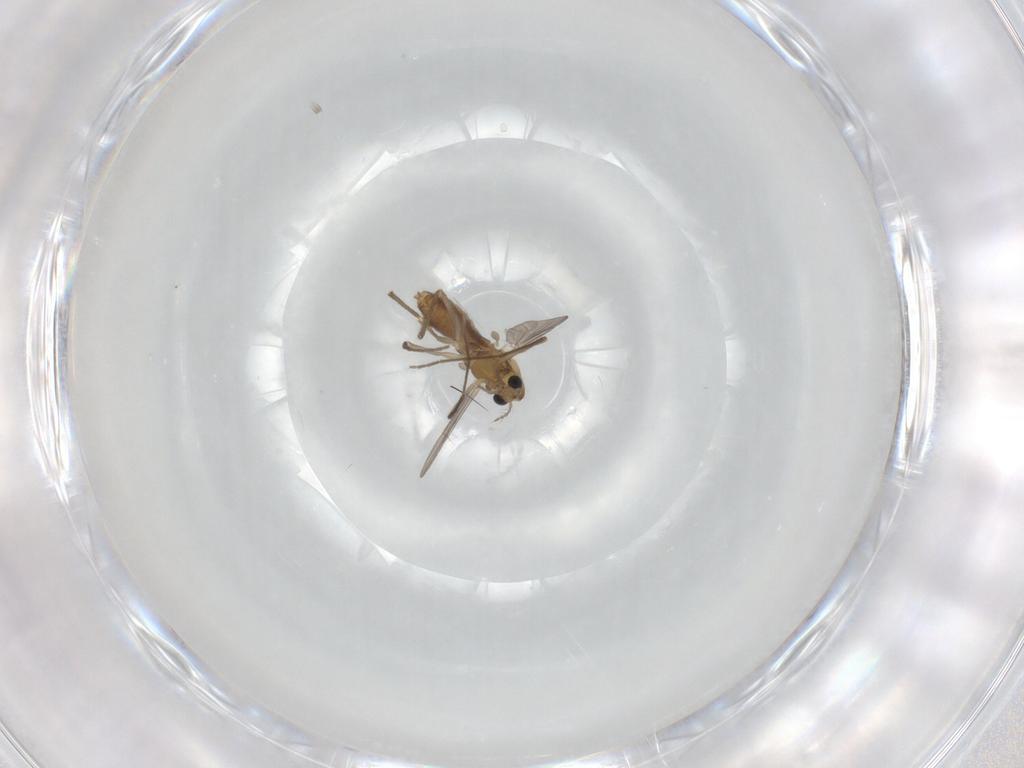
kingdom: Animalia
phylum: Arthropoda
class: Insecta
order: Diptera
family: Chironomidae
